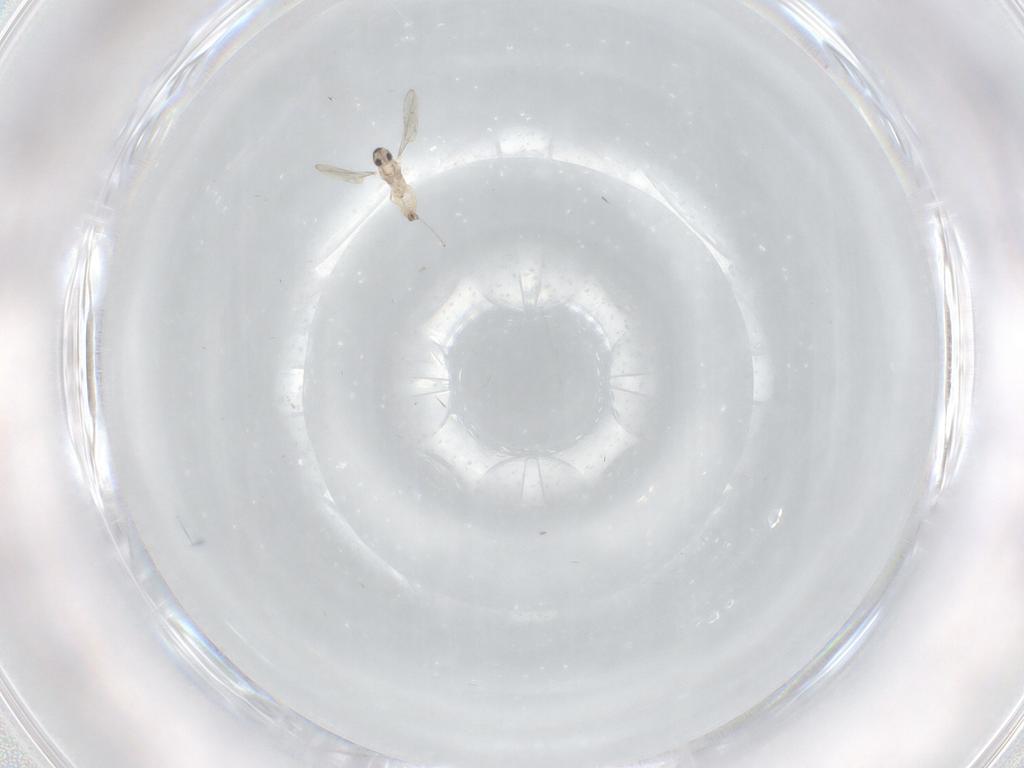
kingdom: Animalia
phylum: Arthropoda
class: Insecta
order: Diptera
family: Cecidomyiidae
